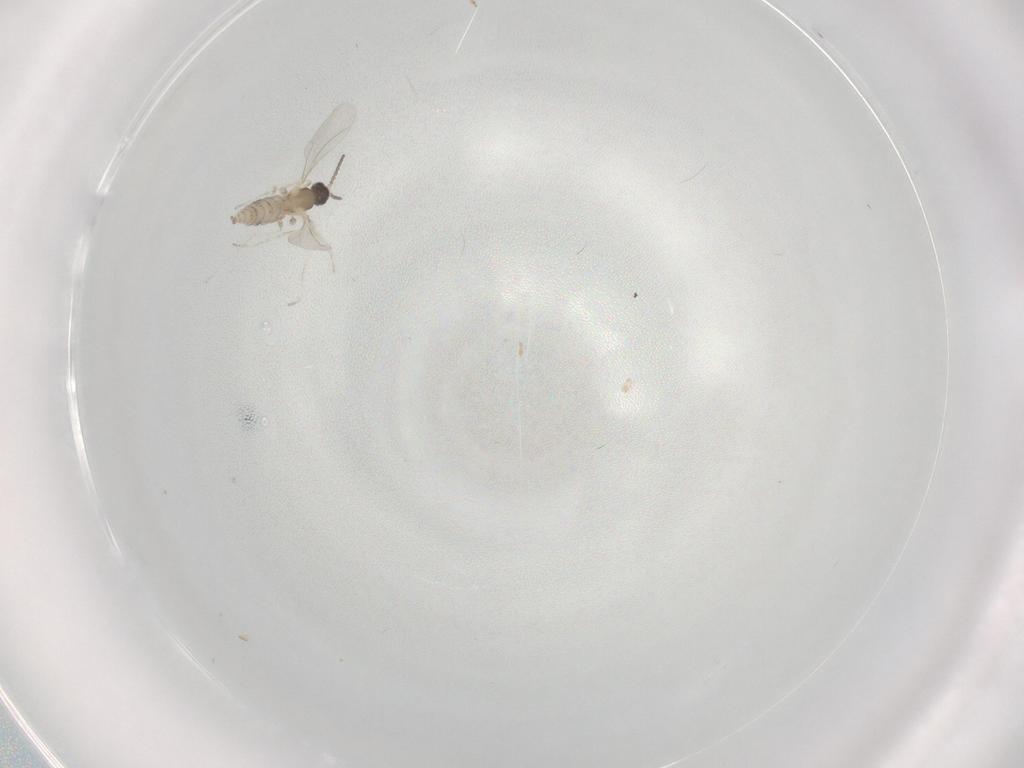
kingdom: Animalia
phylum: Arthropoda
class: Insecta
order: Diptera
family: Cecidomyiidae
